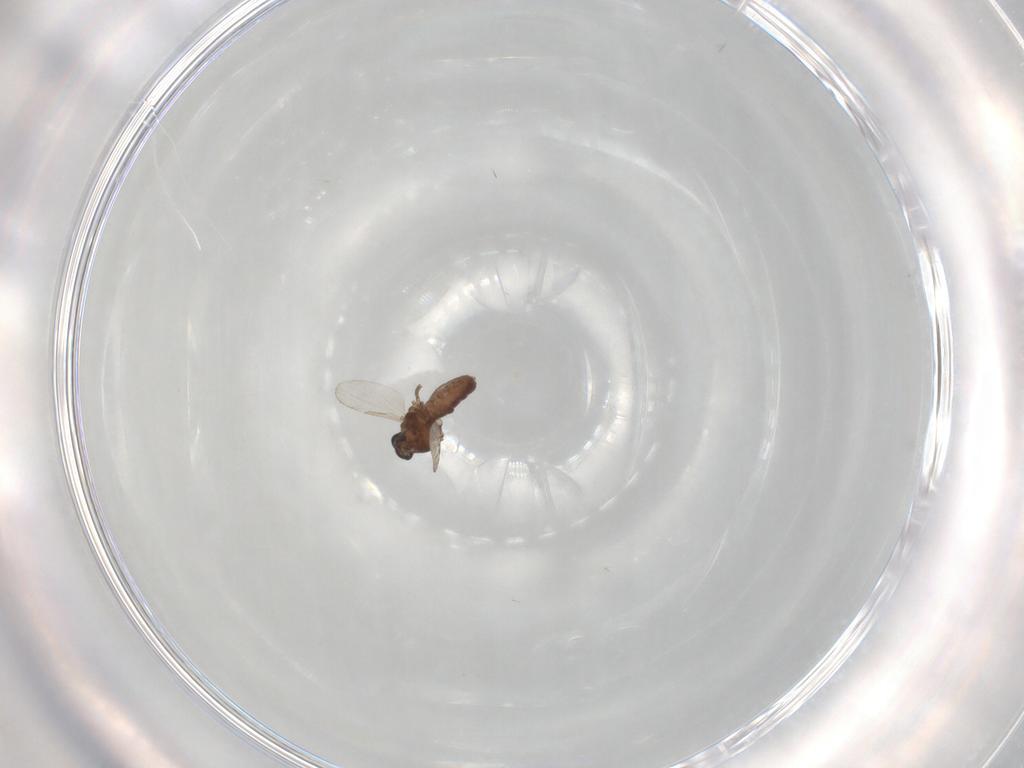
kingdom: Animalia
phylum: Arthropoda
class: Insecta
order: Diptera
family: Ceratopogonidae
